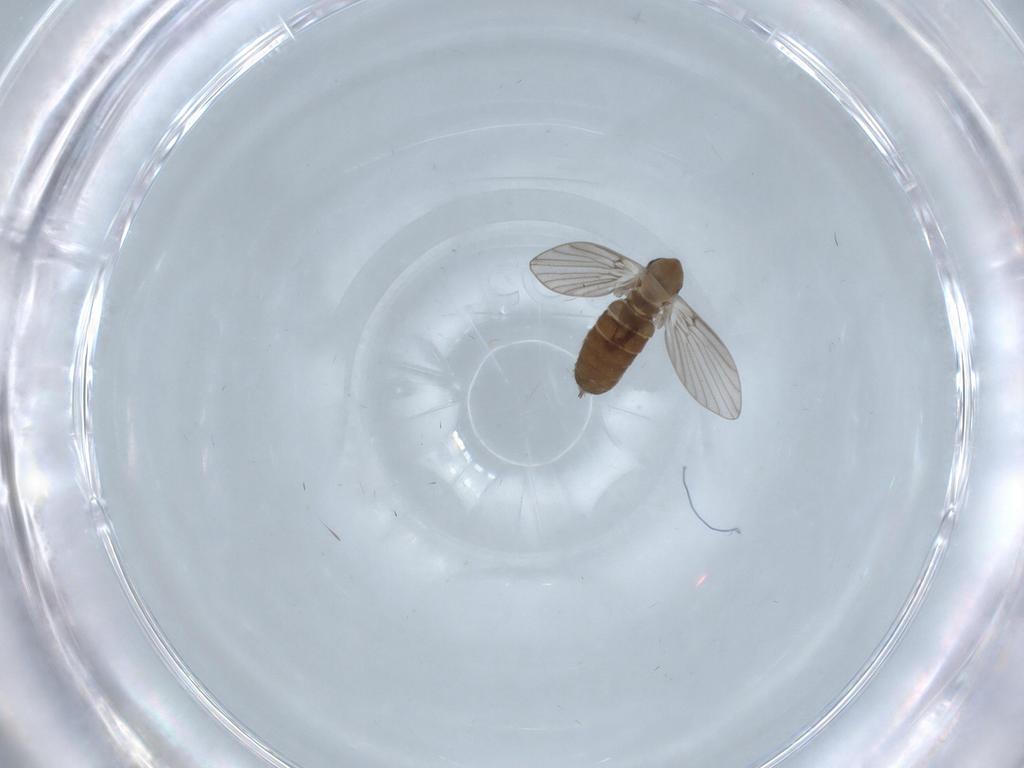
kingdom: Animalia
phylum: Arthropoda
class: Insecta
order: Diptera
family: Psychodidae
